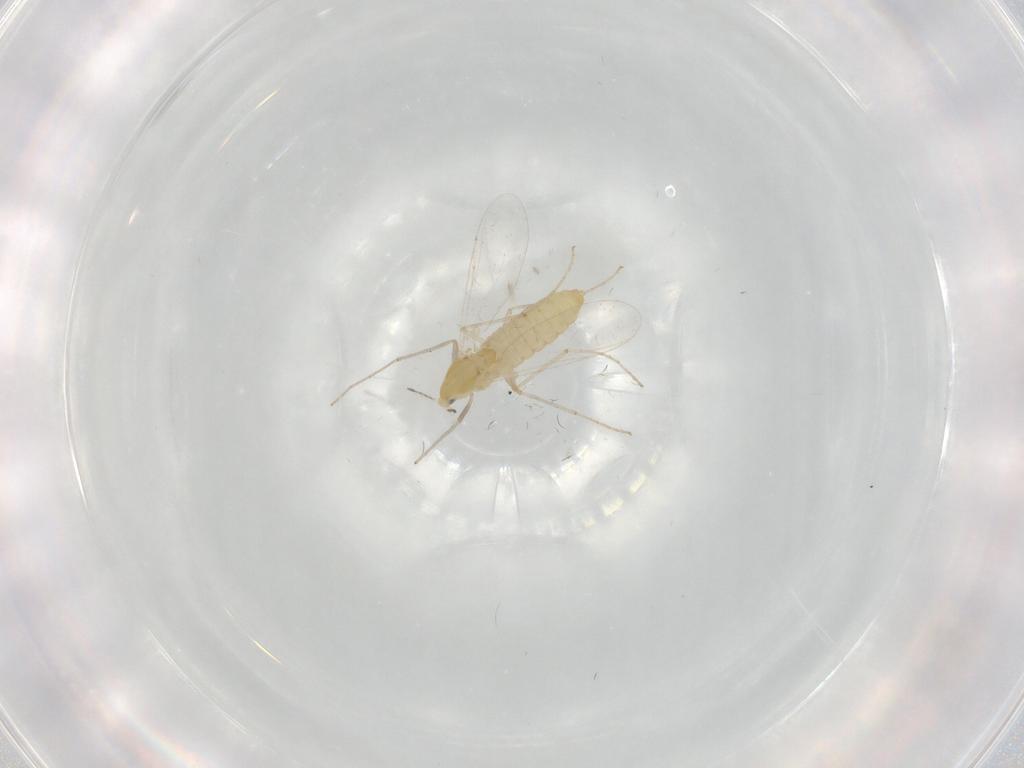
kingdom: Animalia
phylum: Arthropoda
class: Insecta
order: Diptera
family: Chironomidae
